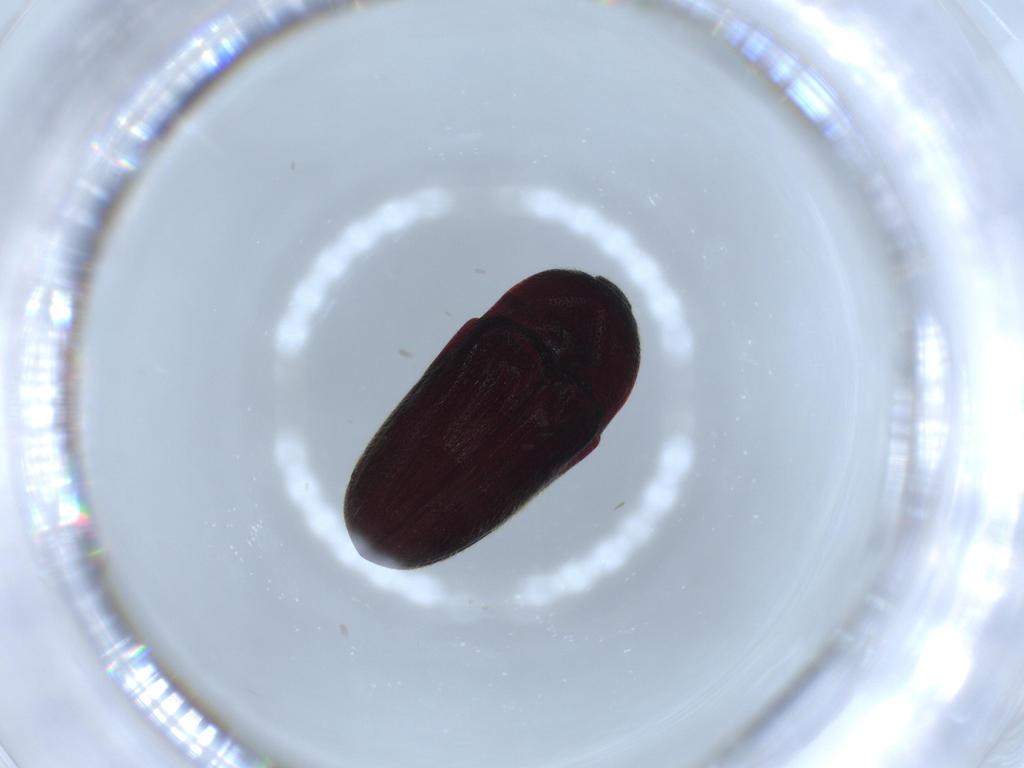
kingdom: Animalia
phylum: Arthropoda
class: Insecta
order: Coleoptera
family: Throscidae
